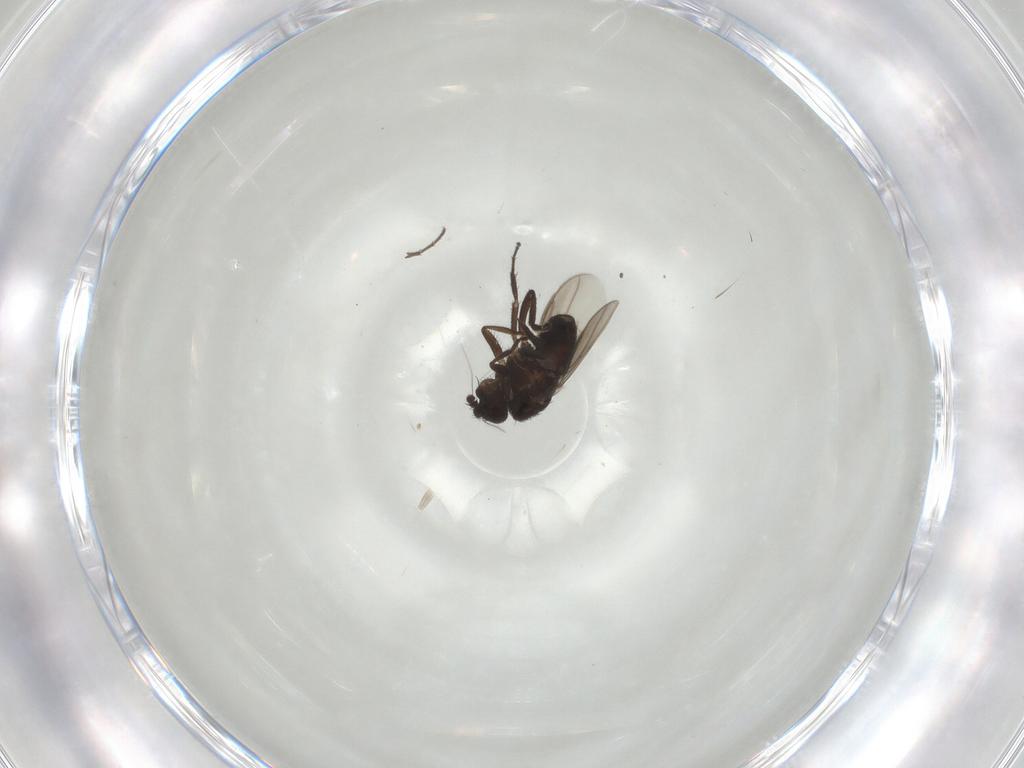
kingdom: Animalia
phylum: Arthropoda
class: Insecta
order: Diptera
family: Sphaeroceridae
